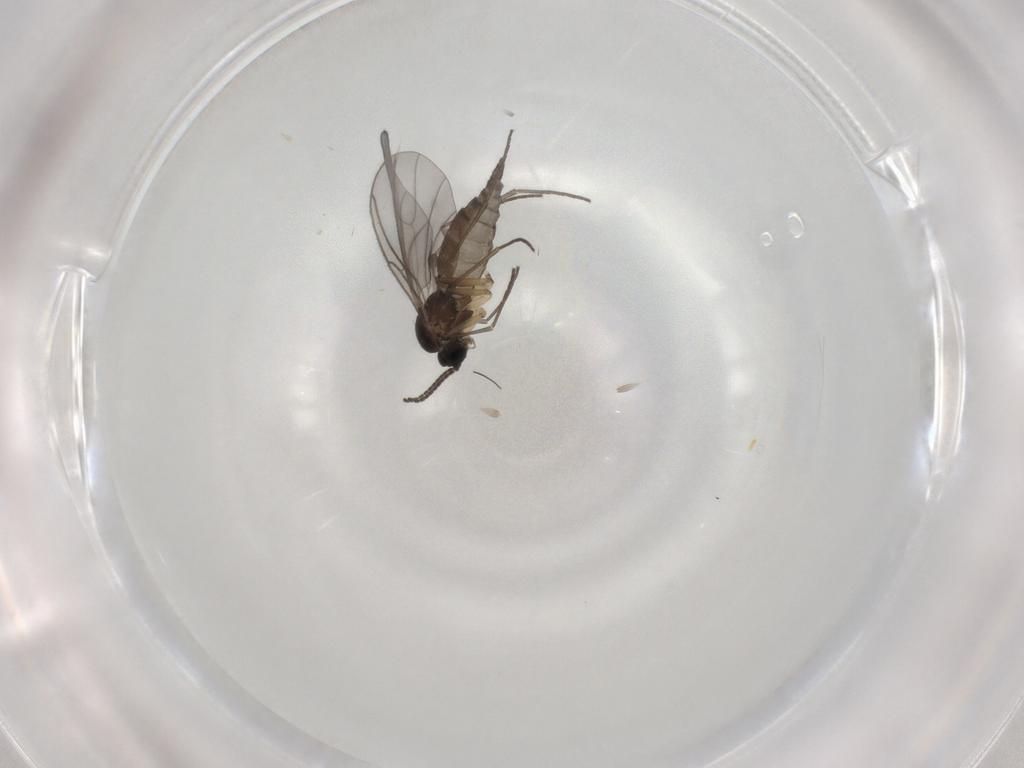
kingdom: Animalia
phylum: Arthropoda
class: Insecta
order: Diptera
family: Sciaridae
